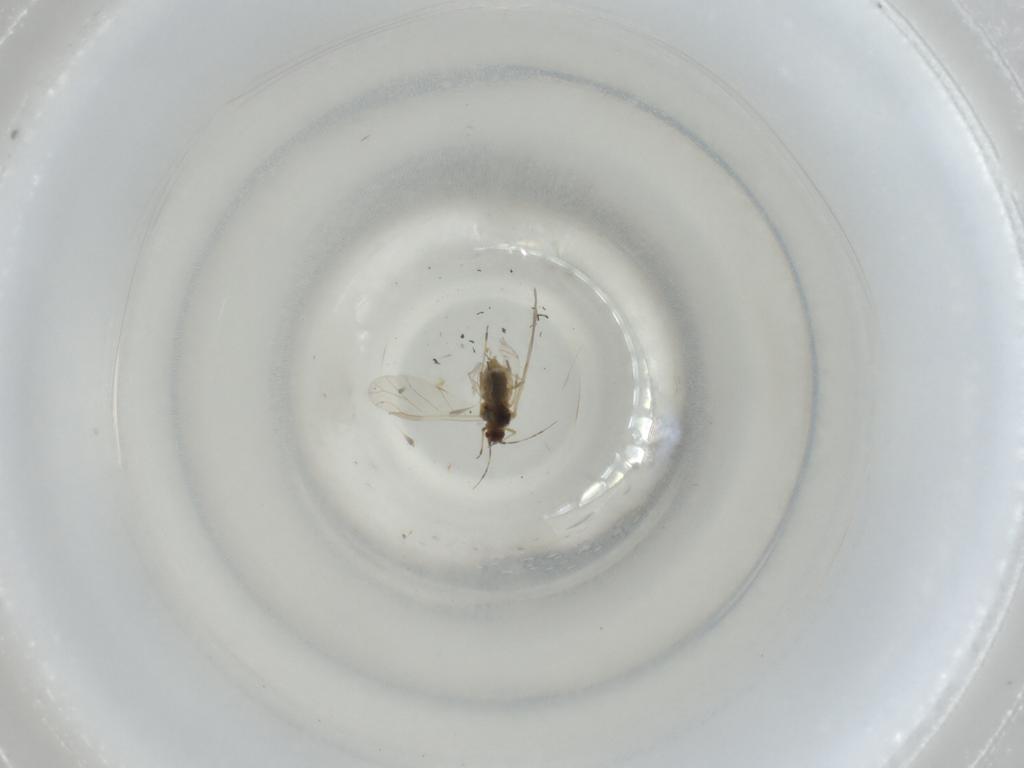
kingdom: Animalia
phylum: Arthropoda
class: Insecta
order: Hemiptera
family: Aphididae
